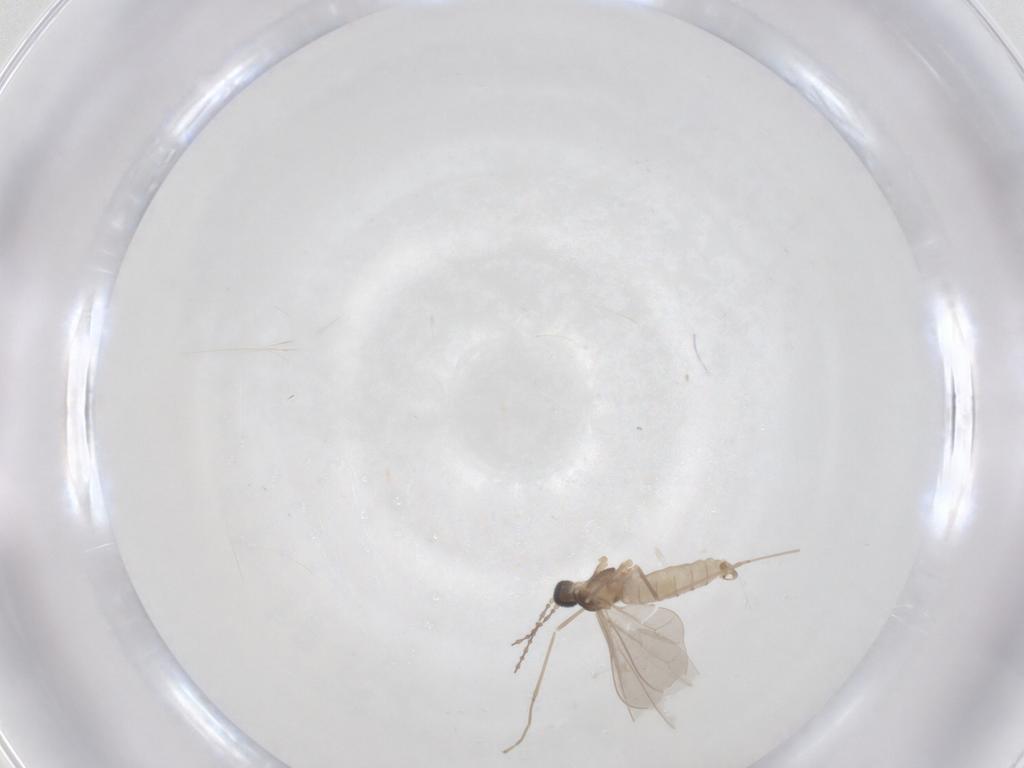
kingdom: Animalia
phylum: Arthropoda
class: Insecta
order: Diptera
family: Cecidomyiidae
